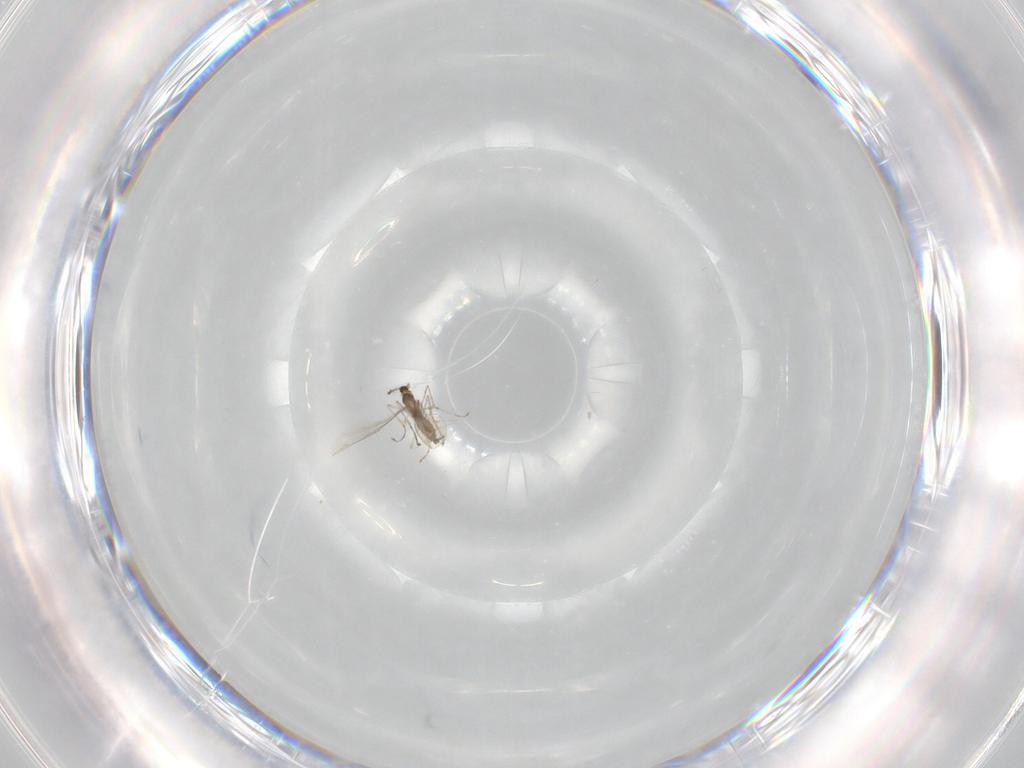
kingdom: Animalia
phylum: Arthropoda
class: Insecta
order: Diptera
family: Cecidomyiidae
